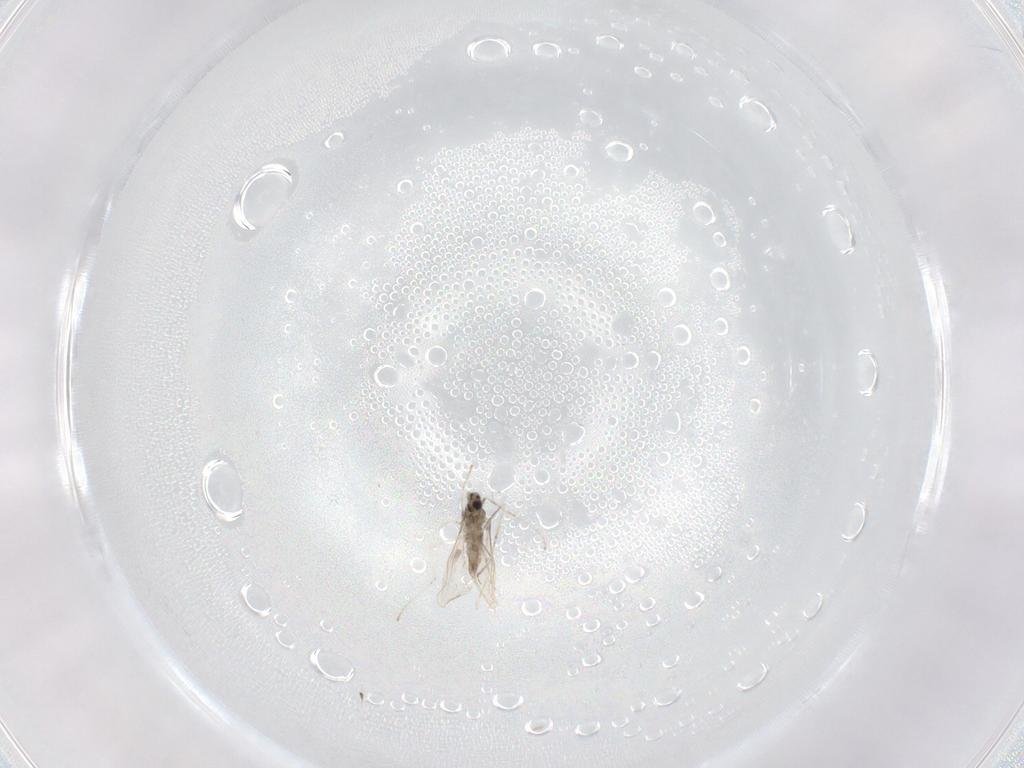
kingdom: Animalia
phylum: Arthropoda
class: Insecta
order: Diptera
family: Cecidomyiidae
